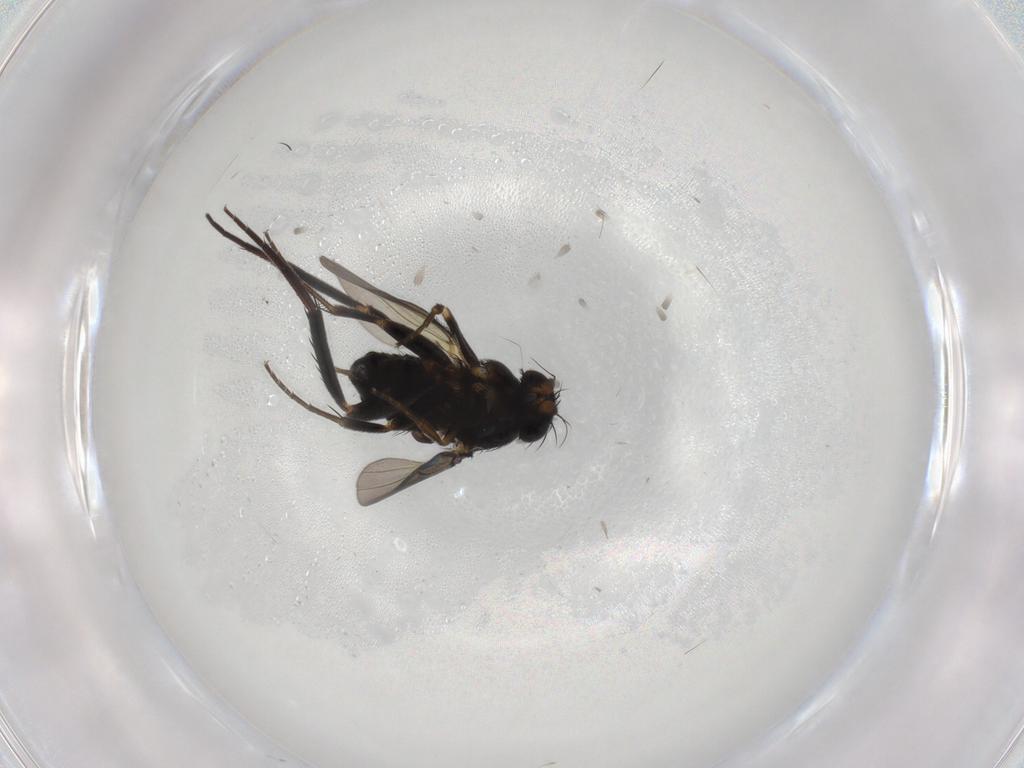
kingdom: Animalia
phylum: Arthropoda
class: Insecta
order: Diptera
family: Phoridae
